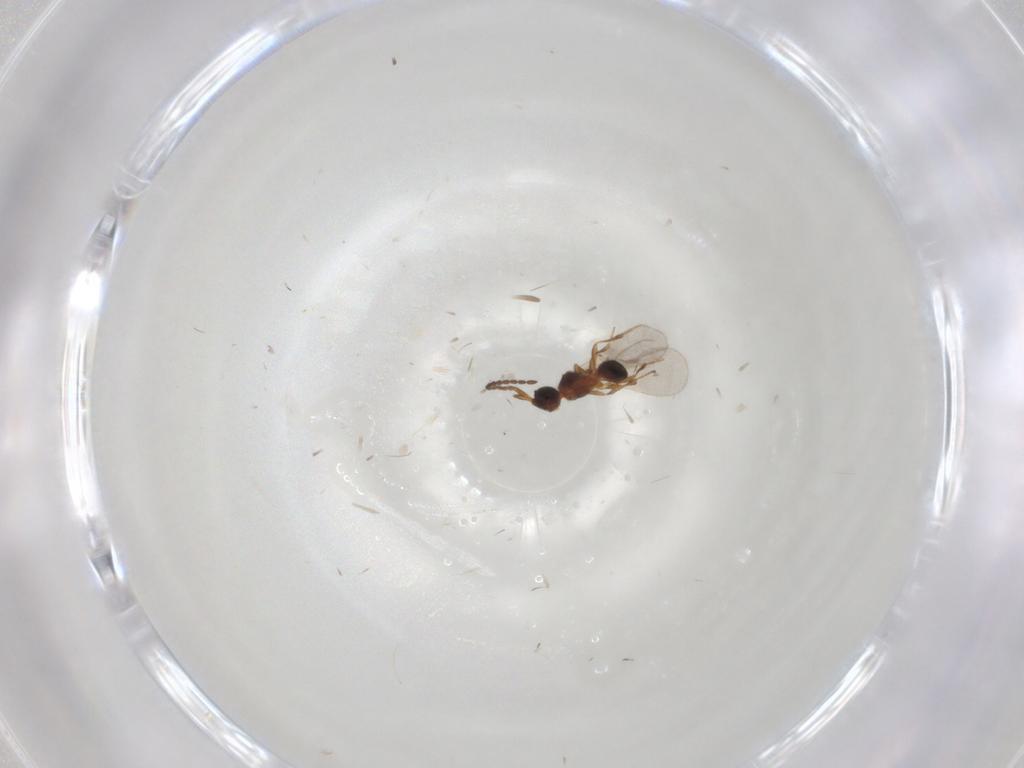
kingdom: Animalia
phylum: Arthropoda
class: Insecta
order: Hymenoptera
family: Diapriidae
